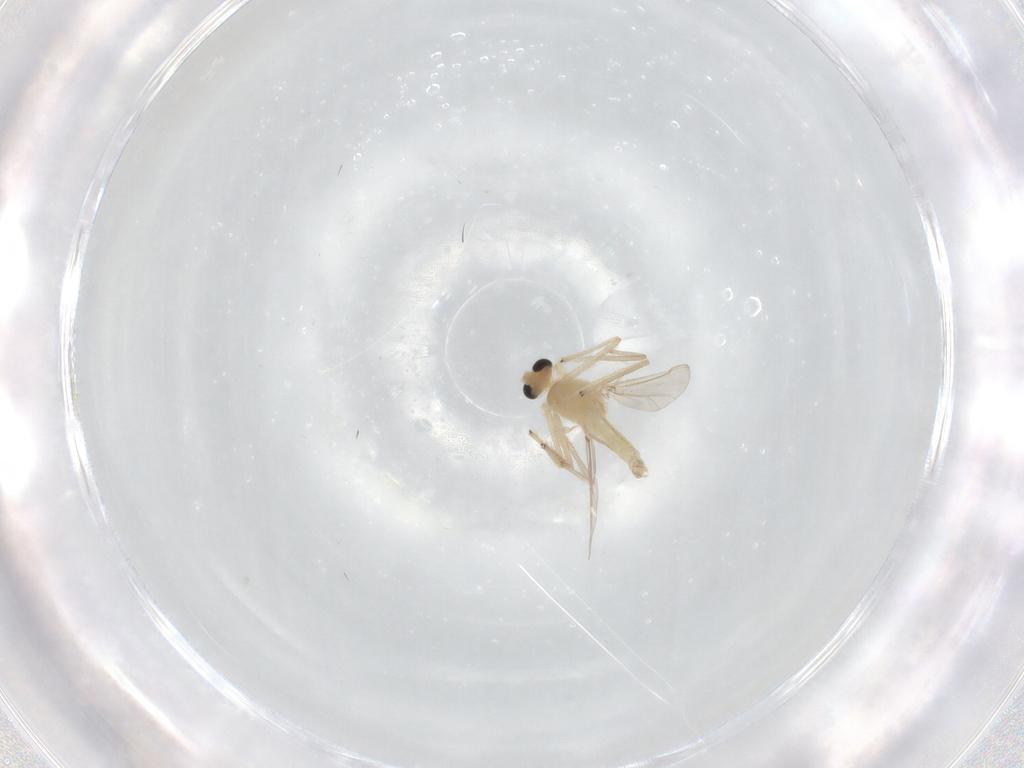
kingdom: Animalia
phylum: Arthropoda
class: Insecta
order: Diptera
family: Chironomidae
